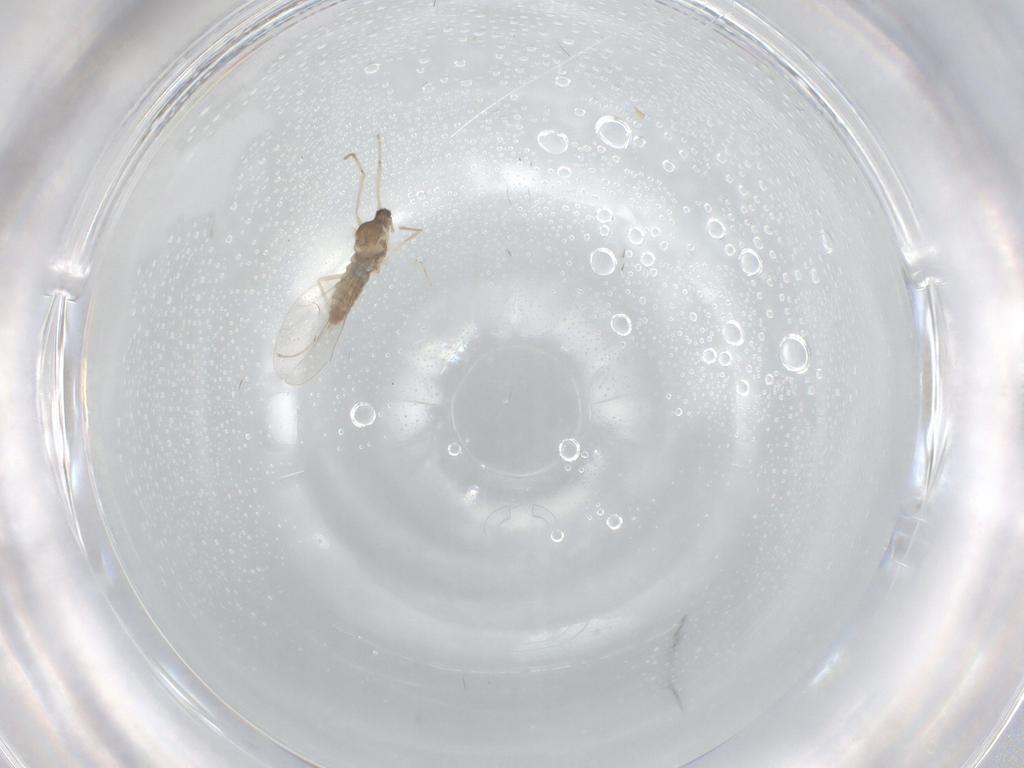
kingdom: Animalia
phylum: Arthropoda
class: Insecta
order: Diptera
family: Cecidomyiidae
